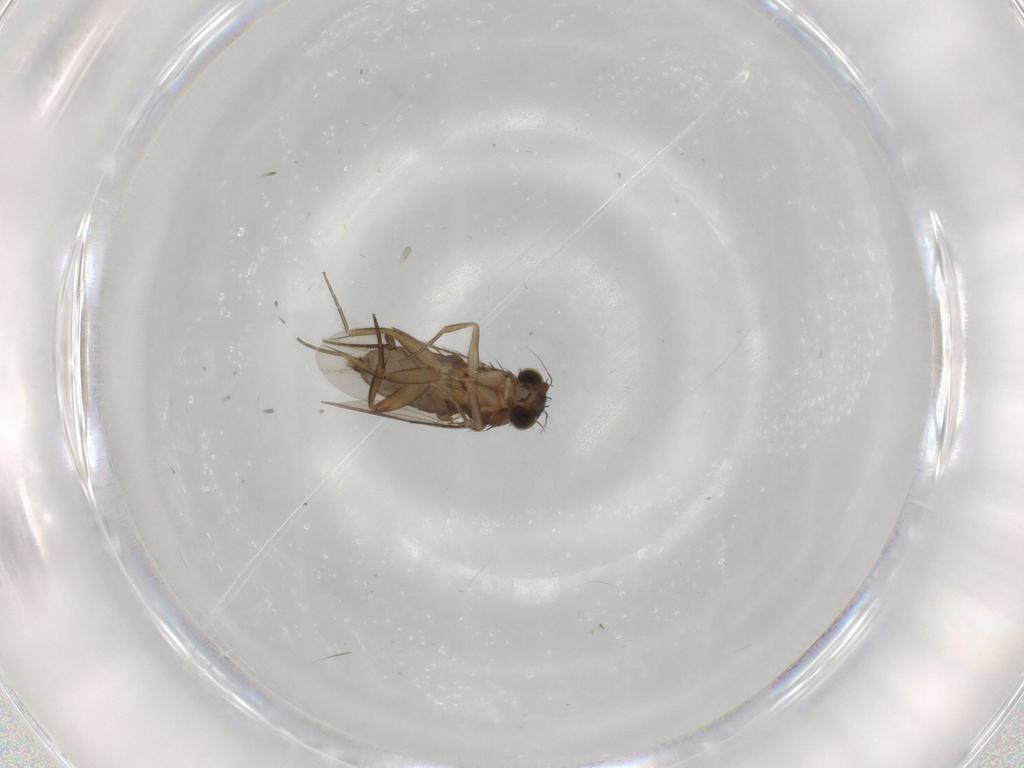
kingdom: Animalia
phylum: Arthropoda
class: Insecta
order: Diptera
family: Phoridae
